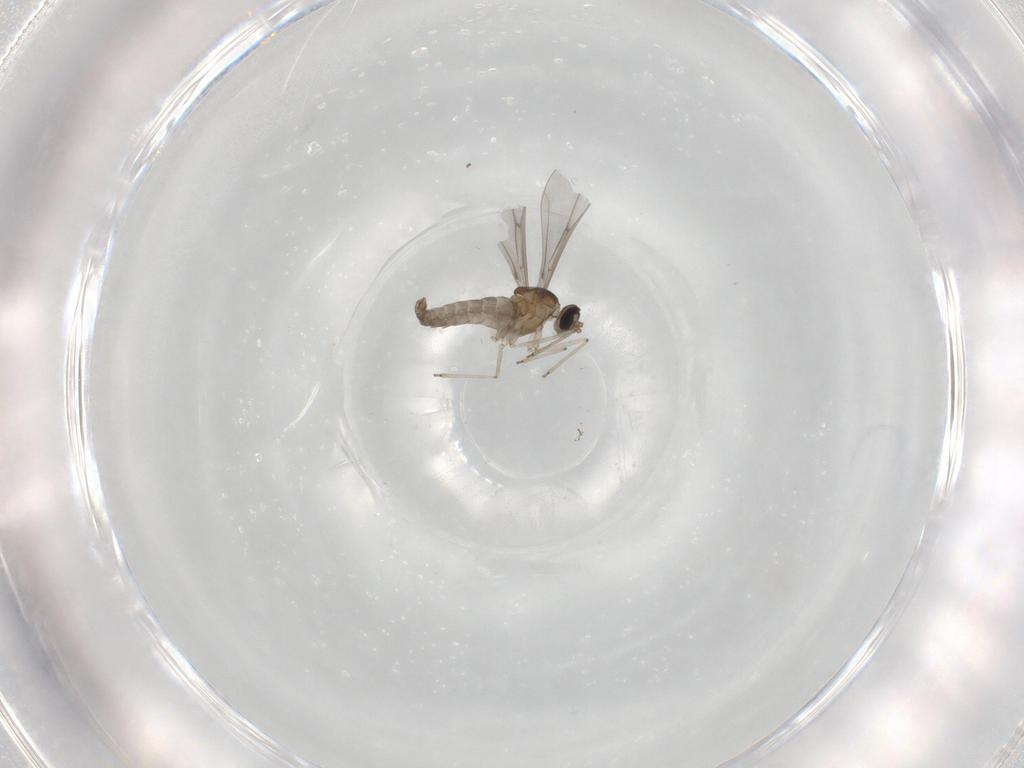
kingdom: Animalia
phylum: Arthropoda
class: Insecta
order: Diptera
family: Cecidomyiidae
